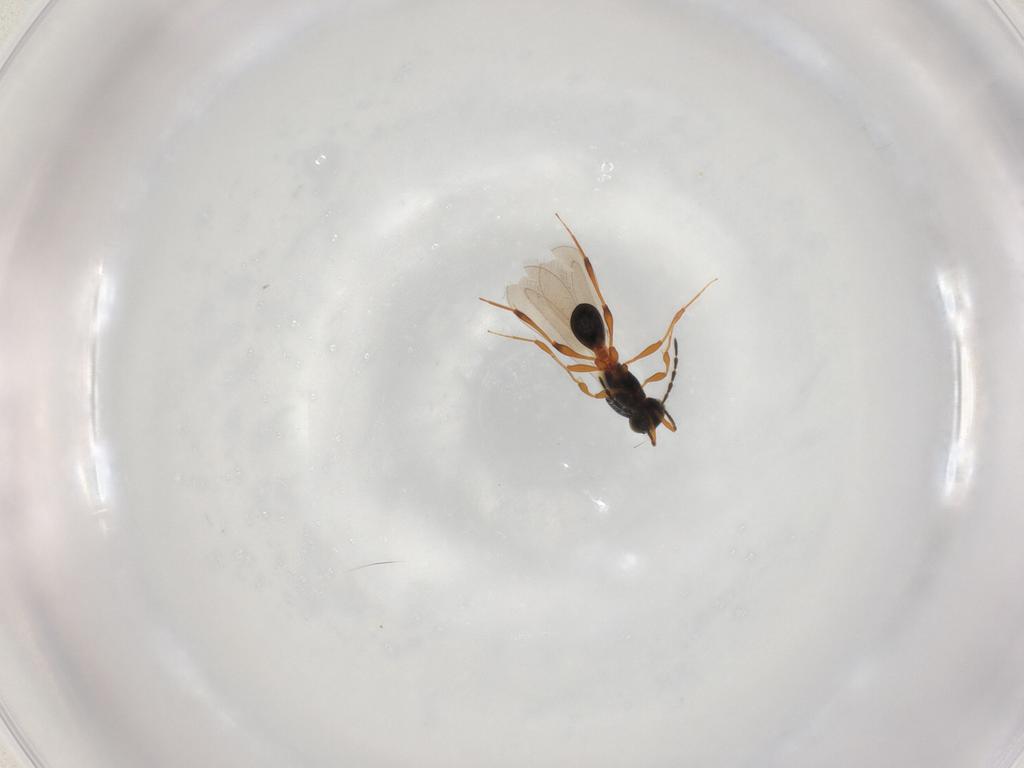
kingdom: Animalia
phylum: Arthropoda
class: Insecta
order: Hymenoptera
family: Platygastridae
